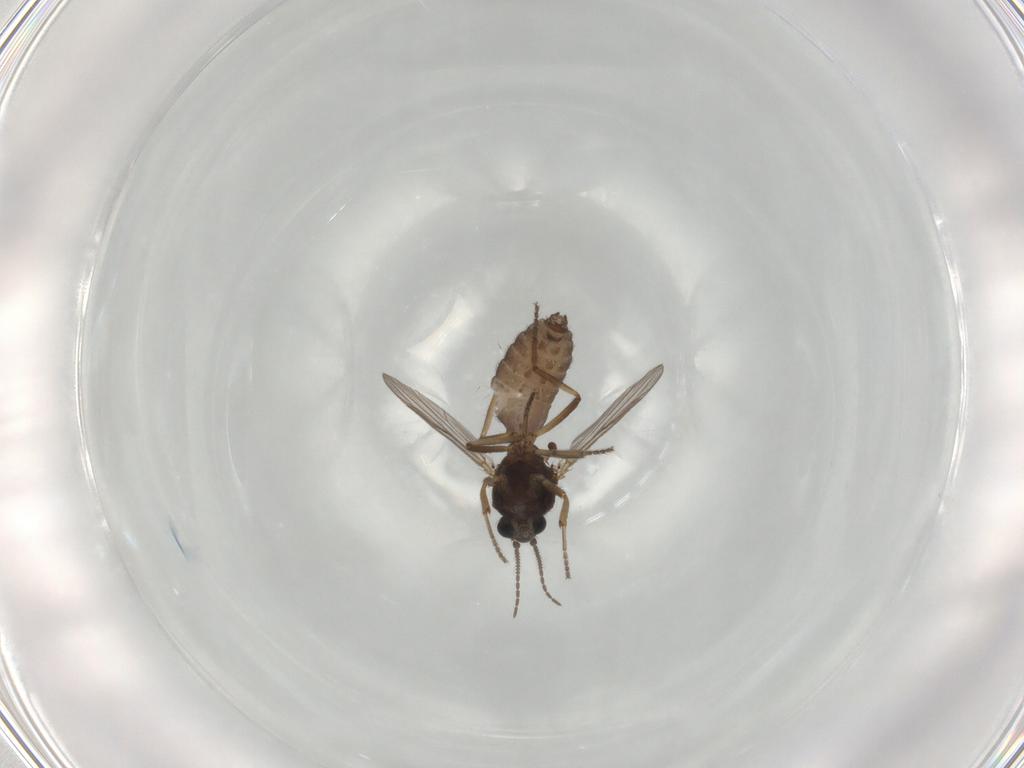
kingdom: Animalia
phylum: Arthropoda
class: Insecta
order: Diptera
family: Ceratopogonidae
